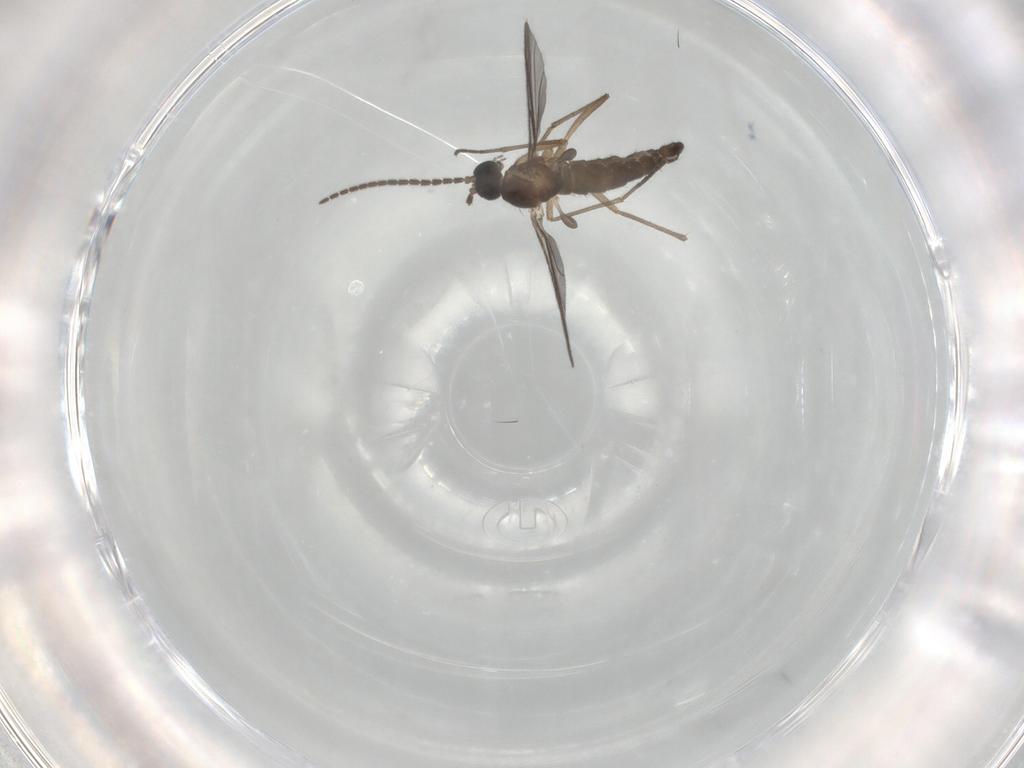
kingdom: Animalia
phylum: Arthropoda
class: Insecta
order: Diptera
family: Sciaridae
